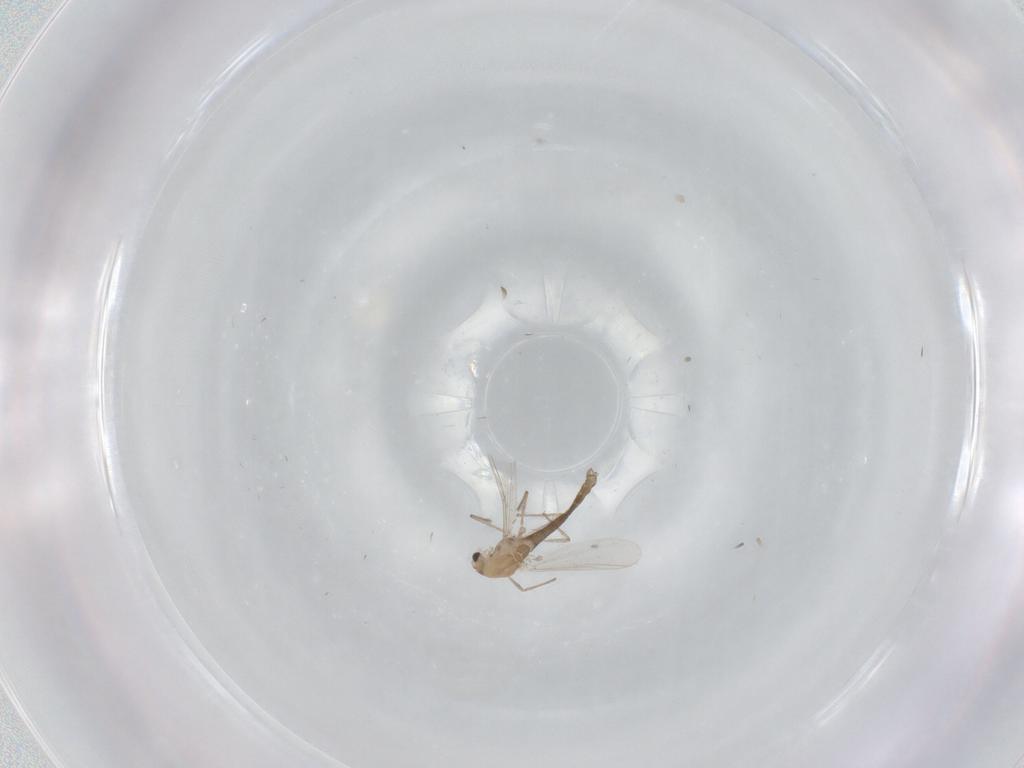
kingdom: Animalia
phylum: Arthropoda
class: Insecta
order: Diptera
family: Chironomidae
